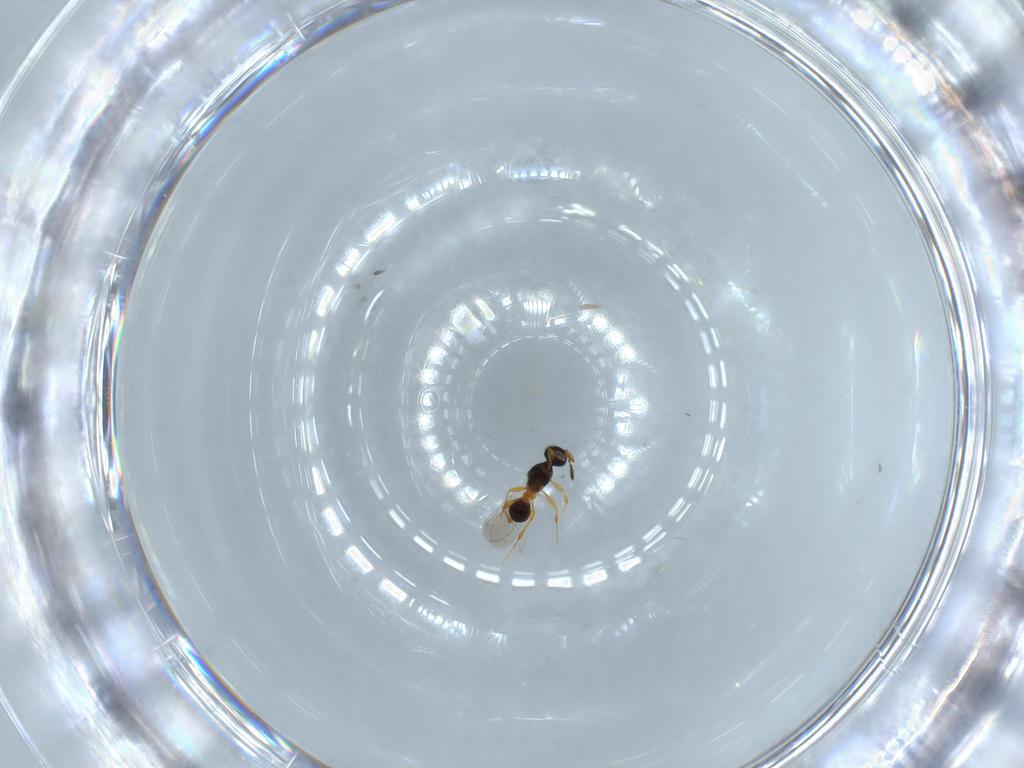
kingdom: Animalia
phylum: Arthropoda
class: Insecta
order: Hymenoptera
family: Platygastridae
